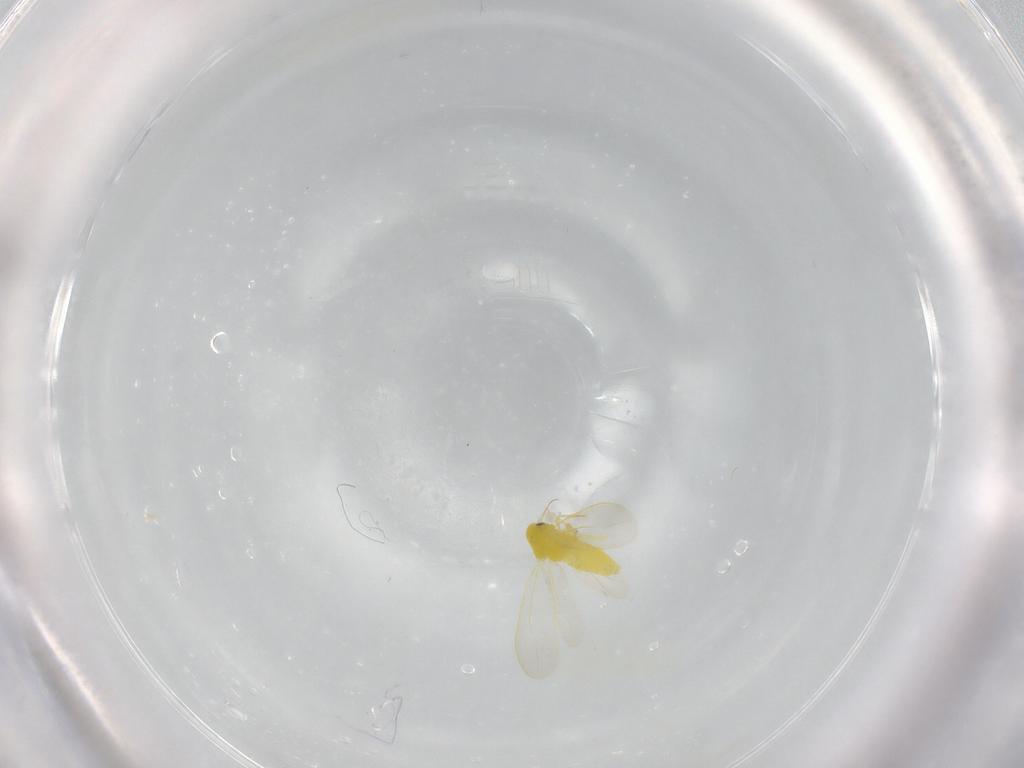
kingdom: Animalia
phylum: Arthropoda
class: Insecta
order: Hemiptera
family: Aleyrodidae
